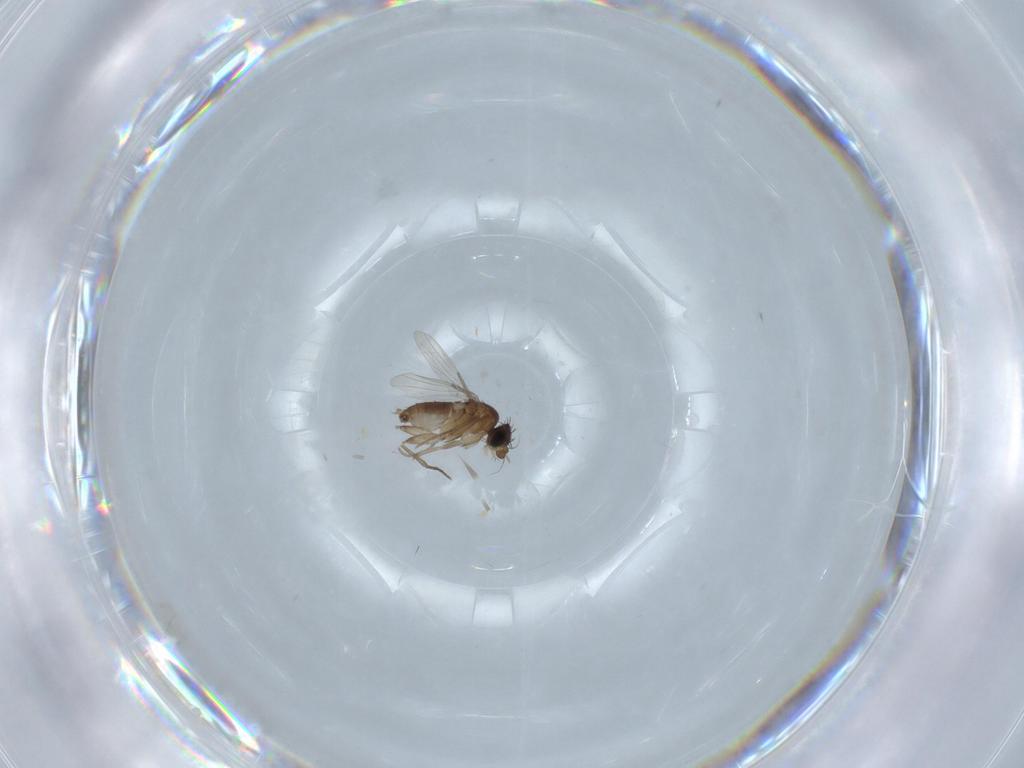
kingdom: Animalia
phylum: Arthropoda
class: Insecta
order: Diptera
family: Phoridae
